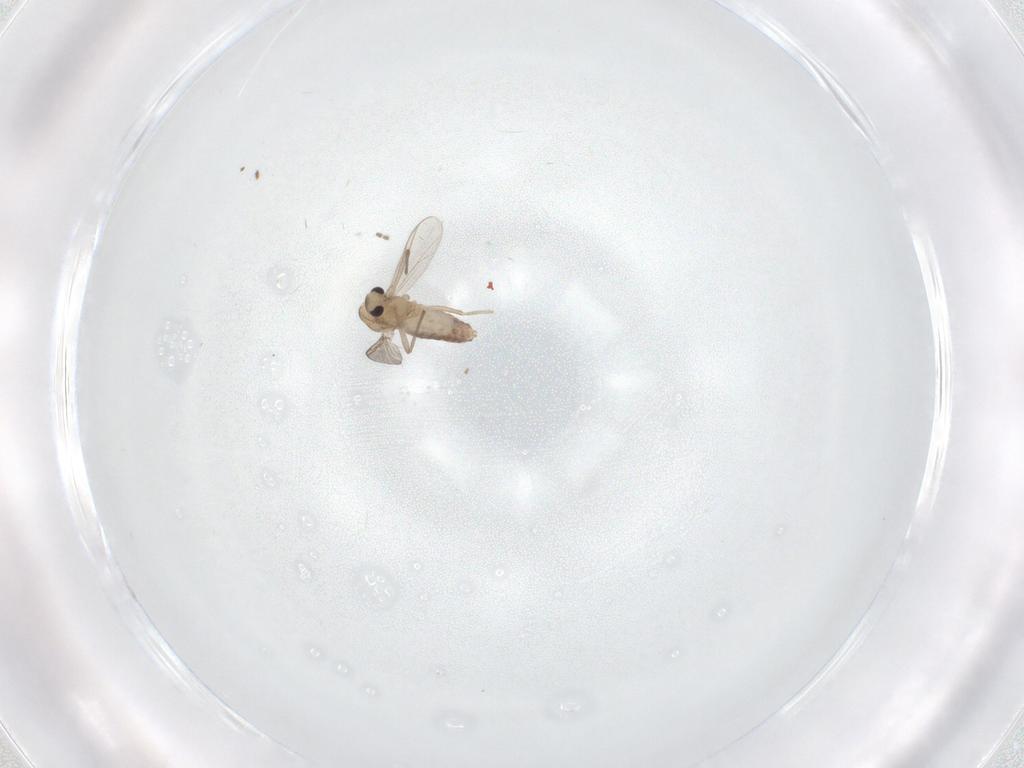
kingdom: Animalia
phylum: Arthropoda
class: Insecta
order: Diptera
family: Chironomidae
